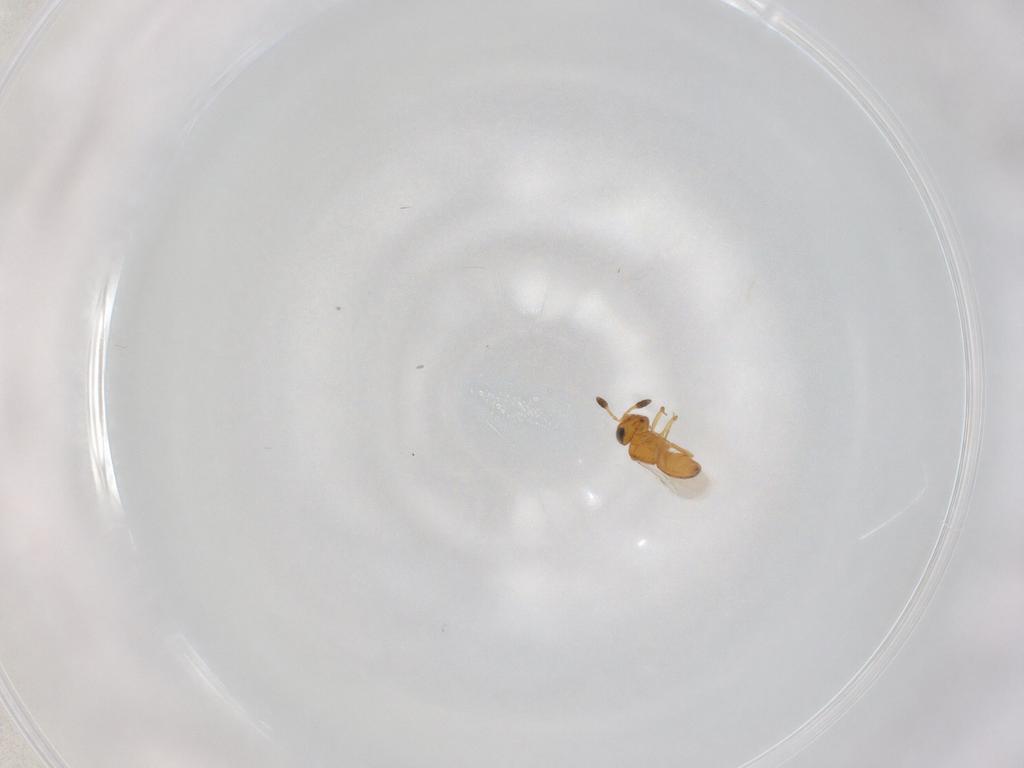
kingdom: Animalia
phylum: Arthropoda
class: Insecta
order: Hymenoptera
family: Scelionidae
